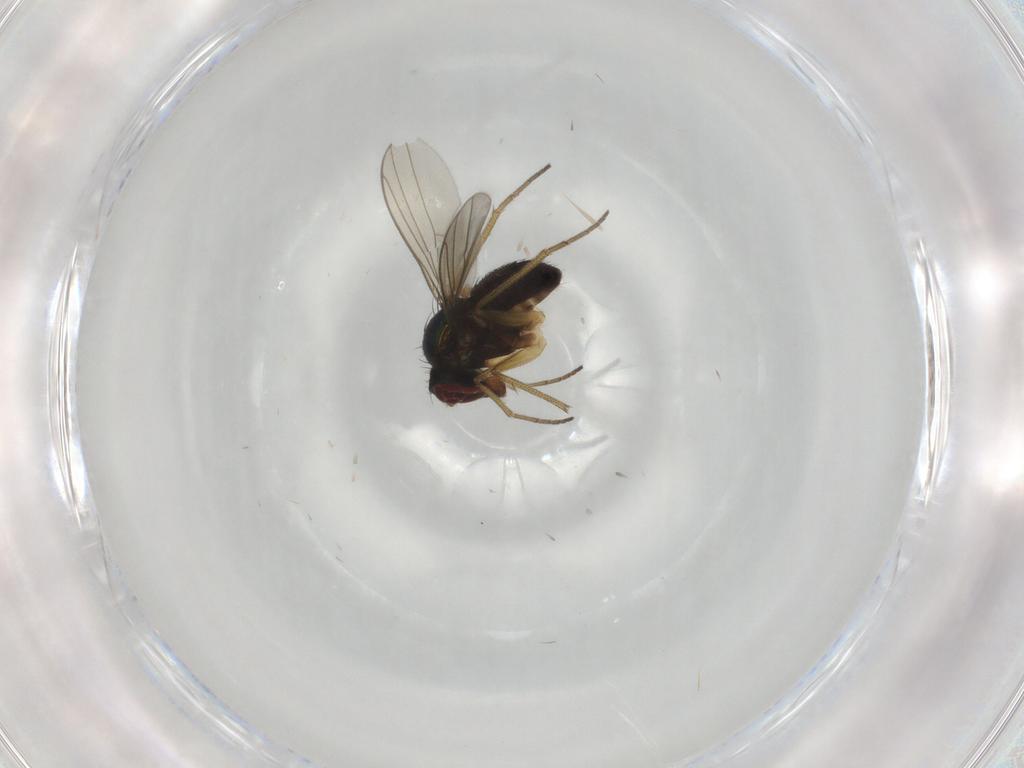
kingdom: Animalia
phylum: Arthropoda
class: Insecta
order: Diptera
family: Dolichopodidae
